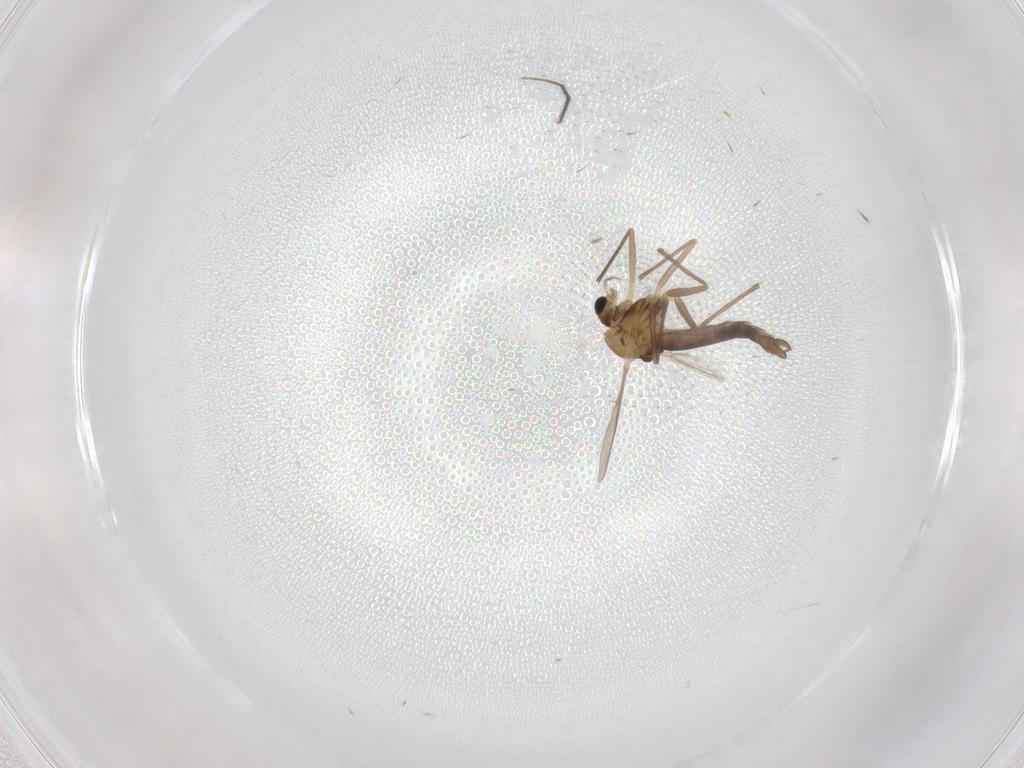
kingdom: Animalia
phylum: Arthropoda
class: Insecta
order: Diptera
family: Chironomidae
